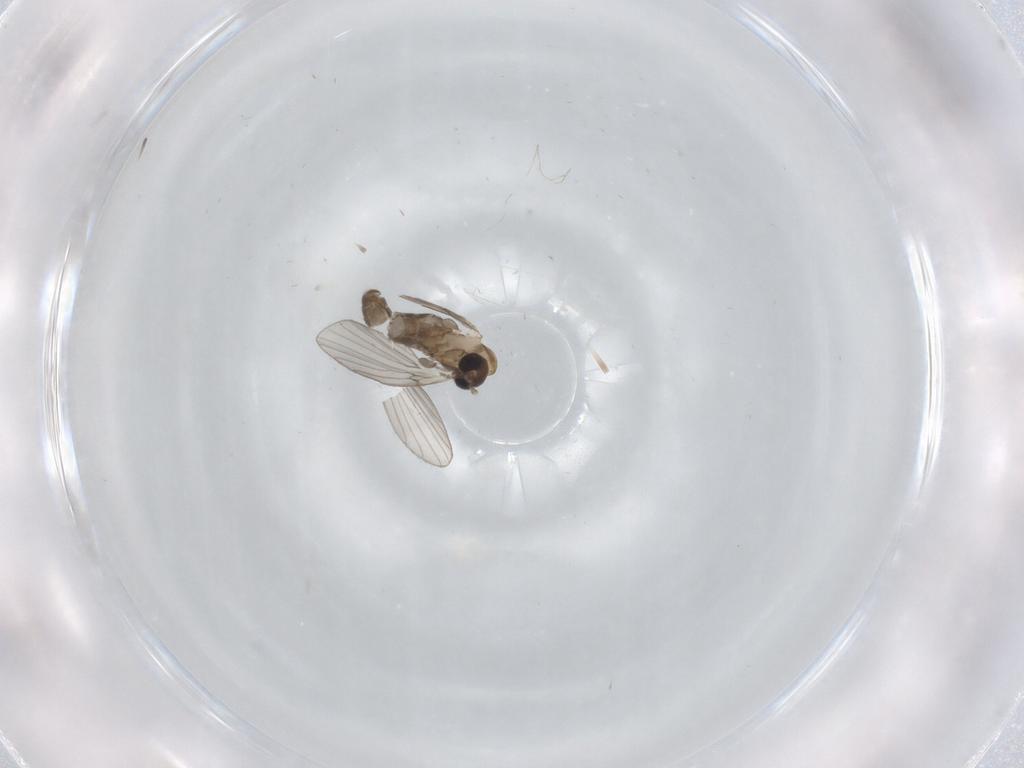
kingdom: Animalia
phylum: Arthropoda
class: Insecta
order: Diptera
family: Psychodidae
